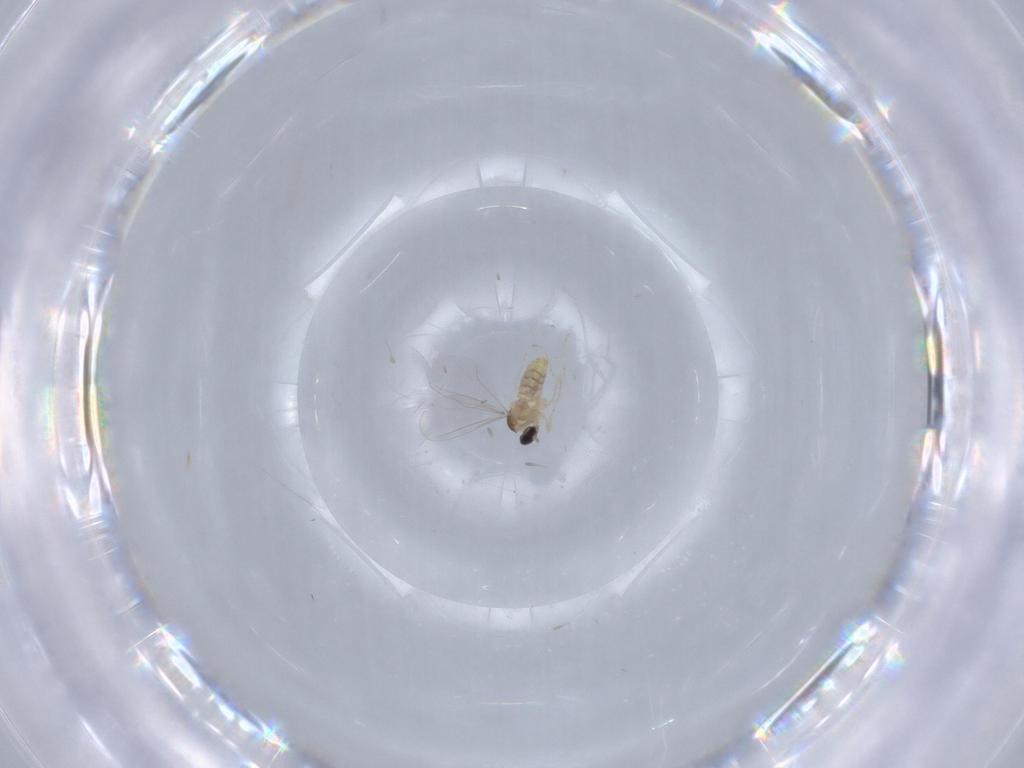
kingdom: Animalia
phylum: Arthropoda
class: Insecta
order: Diptera
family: Cecidomyiidae
